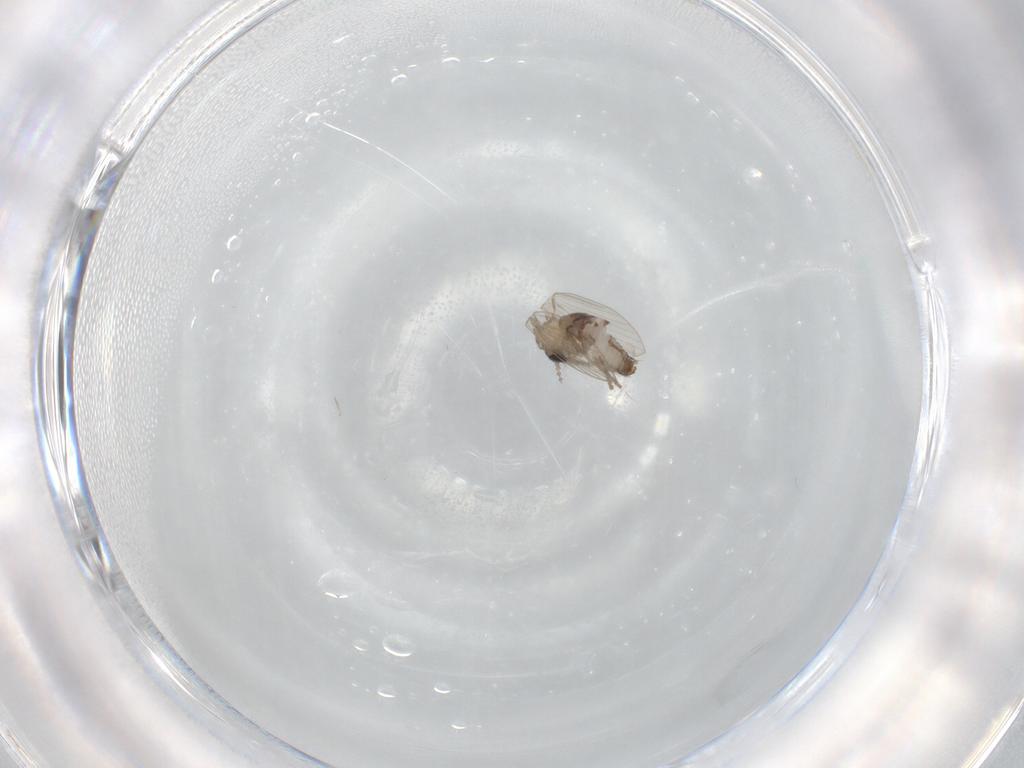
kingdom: Animalia
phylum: Arthropoda
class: Insecta
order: Diptera
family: Psychodidae
